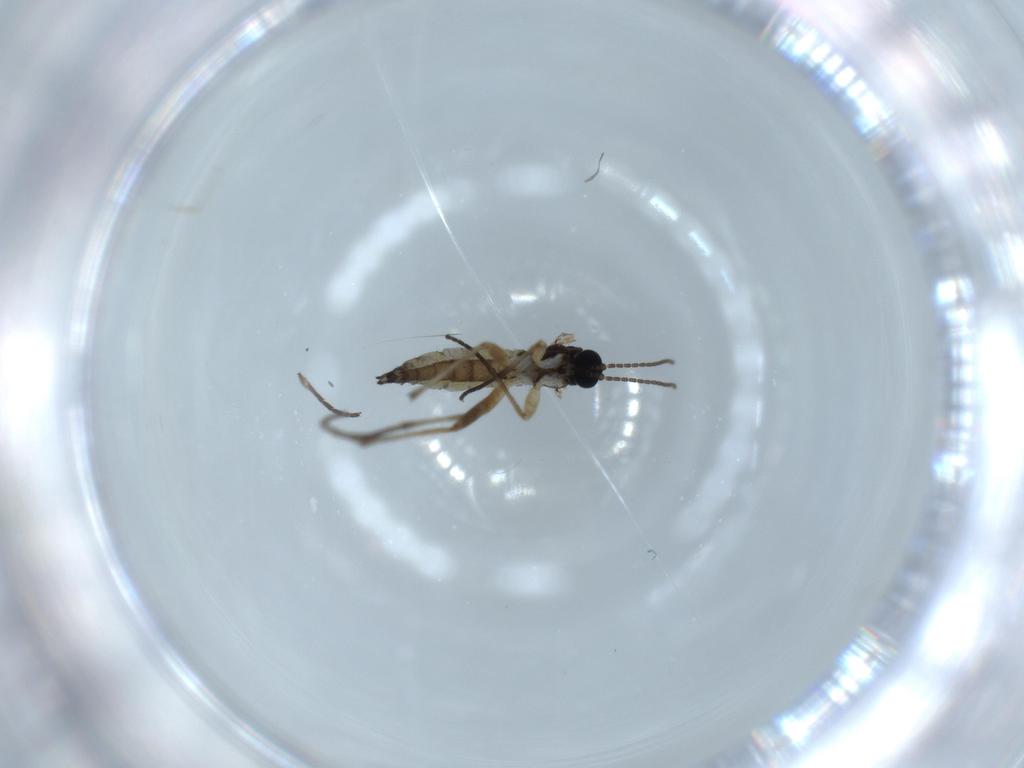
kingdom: Animalia
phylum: Arthropoda
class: Insecta
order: Diptera
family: Sciaridae
